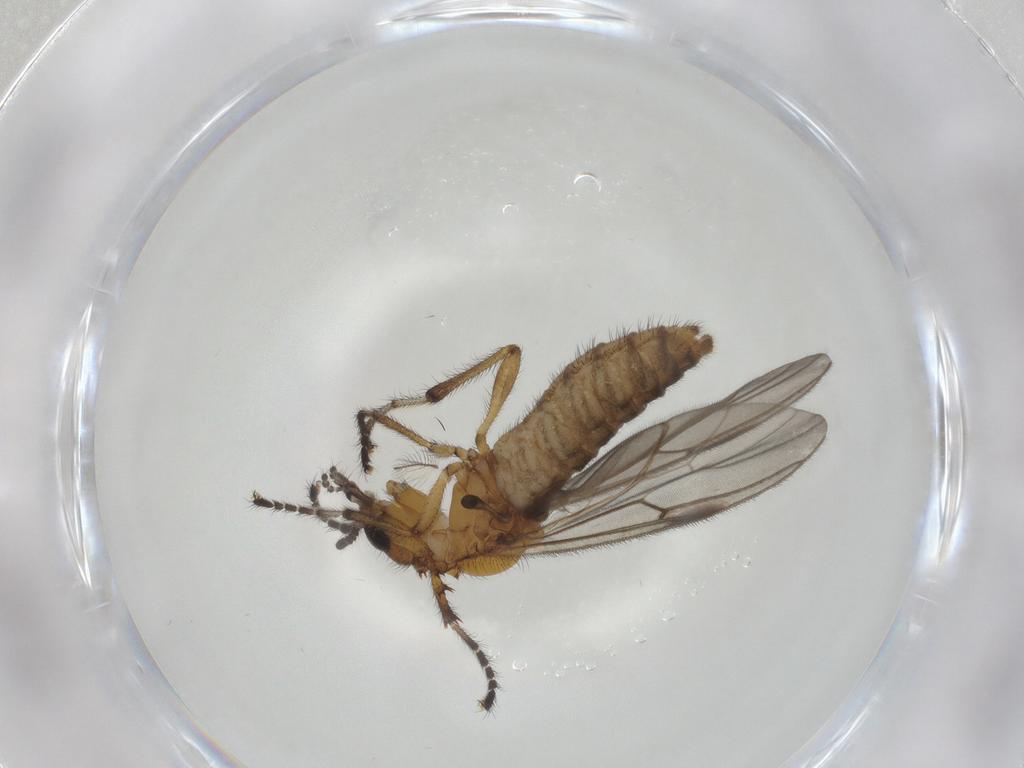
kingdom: Animalia
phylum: Arthropoda
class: Insecta
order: Diptera
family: Bibionidae
